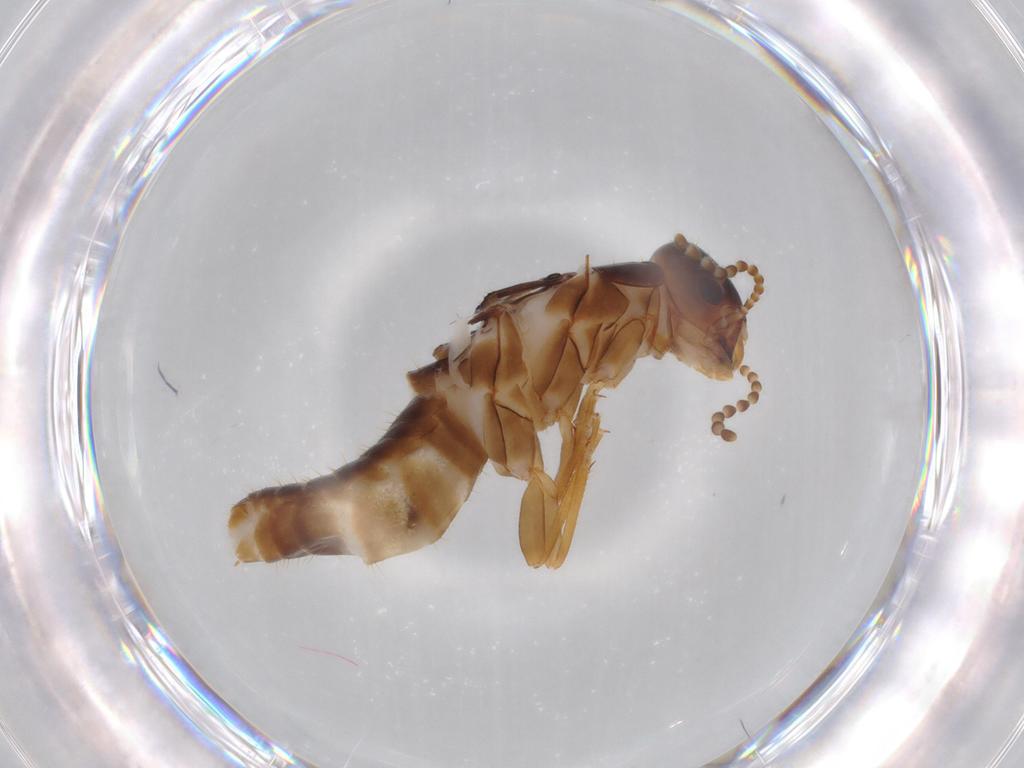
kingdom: Animalia
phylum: Arthropoda
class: Insecta
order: Blattodea
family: Kalotermitidae
